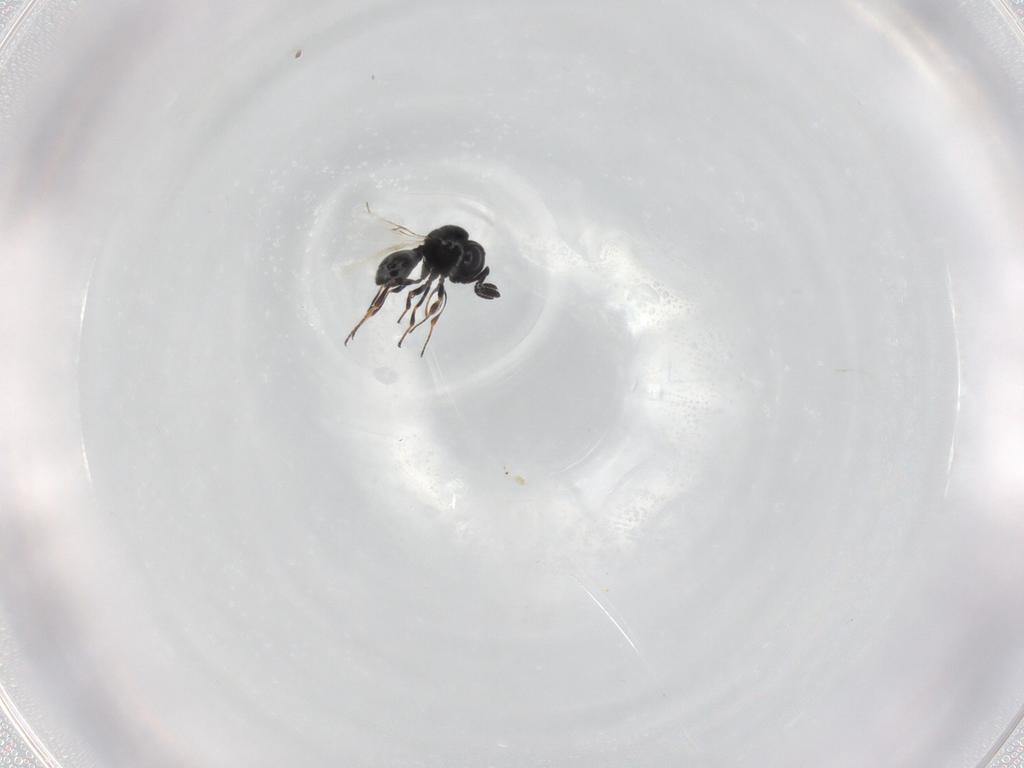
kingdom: Animalia
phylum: Arthropoda
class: Insecta
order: Hymenoptera
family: Scelionidae
